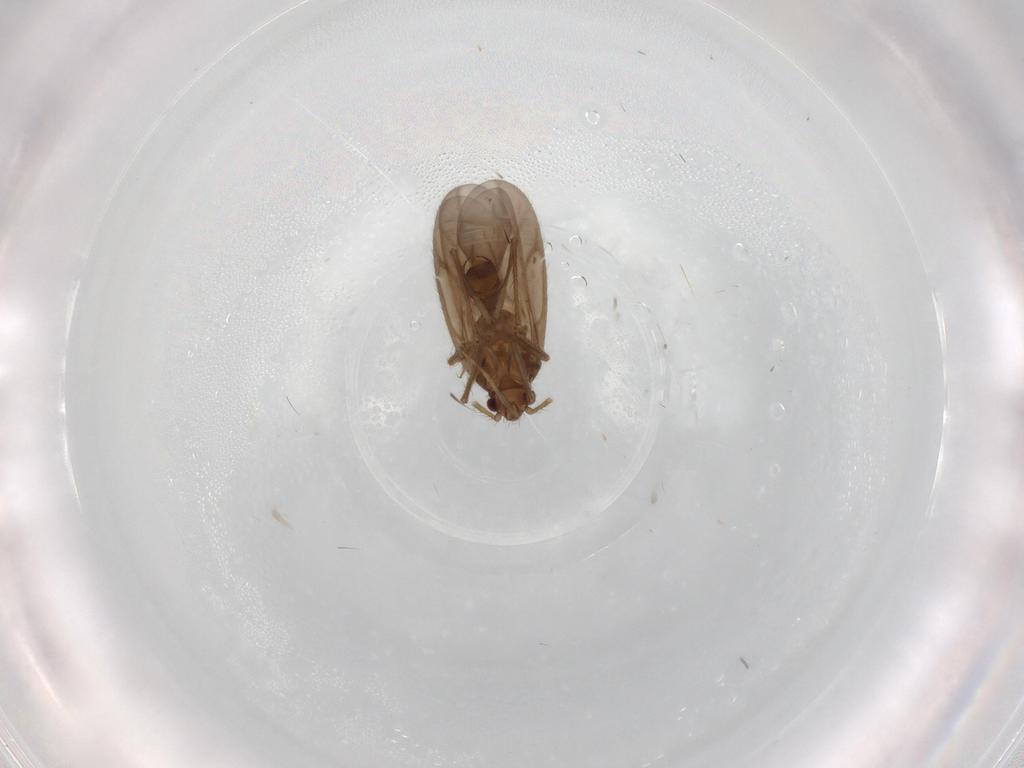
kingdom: Animalia
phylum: Arthropoda
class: Insecta
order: Hemiptera
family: Ceratocombidae
